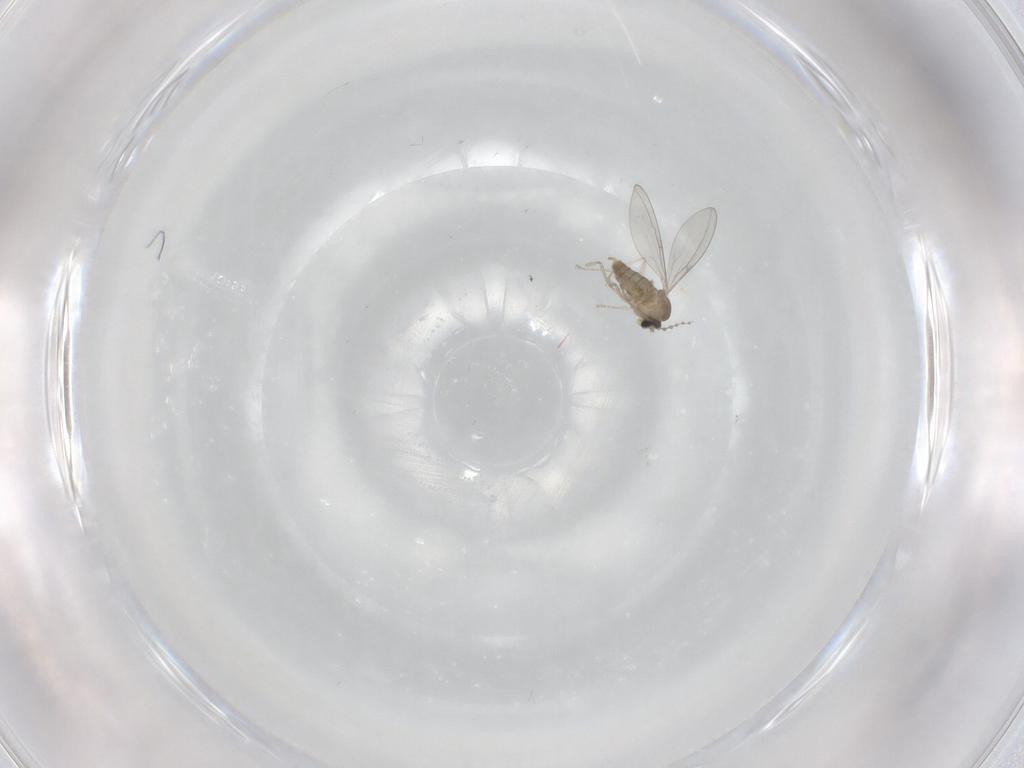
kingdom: Animalia
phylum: Arthropoda
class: Insecta
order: Diptera
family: Cecidomyiidae
